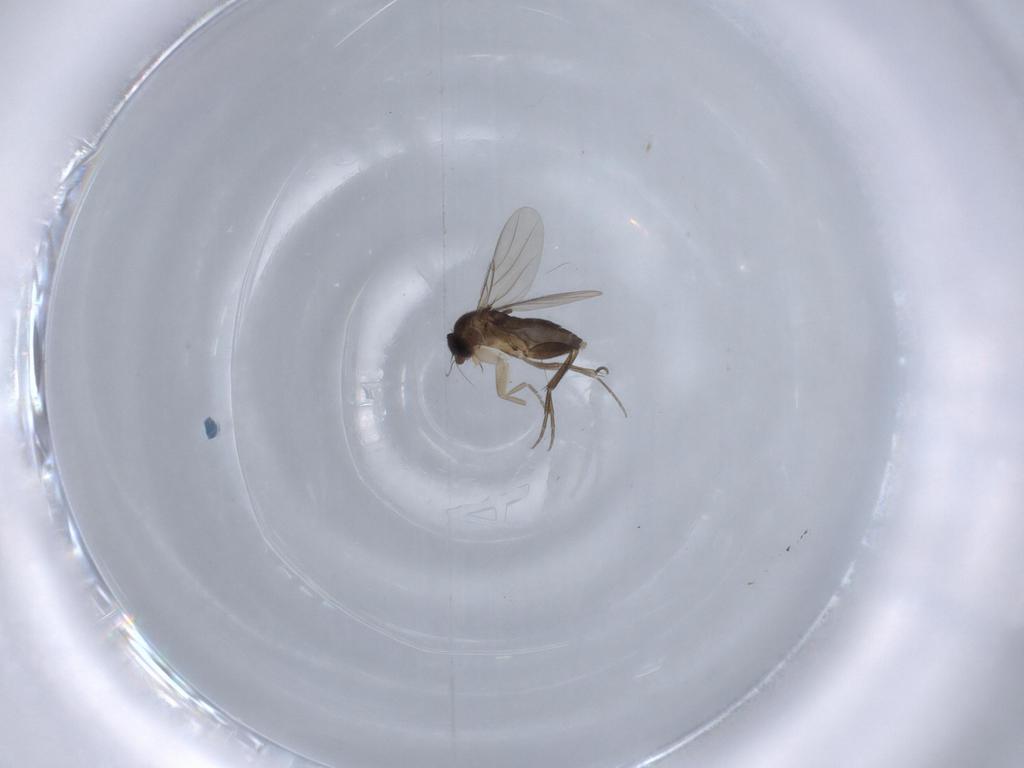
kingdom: Animalia
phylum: Arthropoda
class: Insecta
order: Diptera
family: Phoridae
